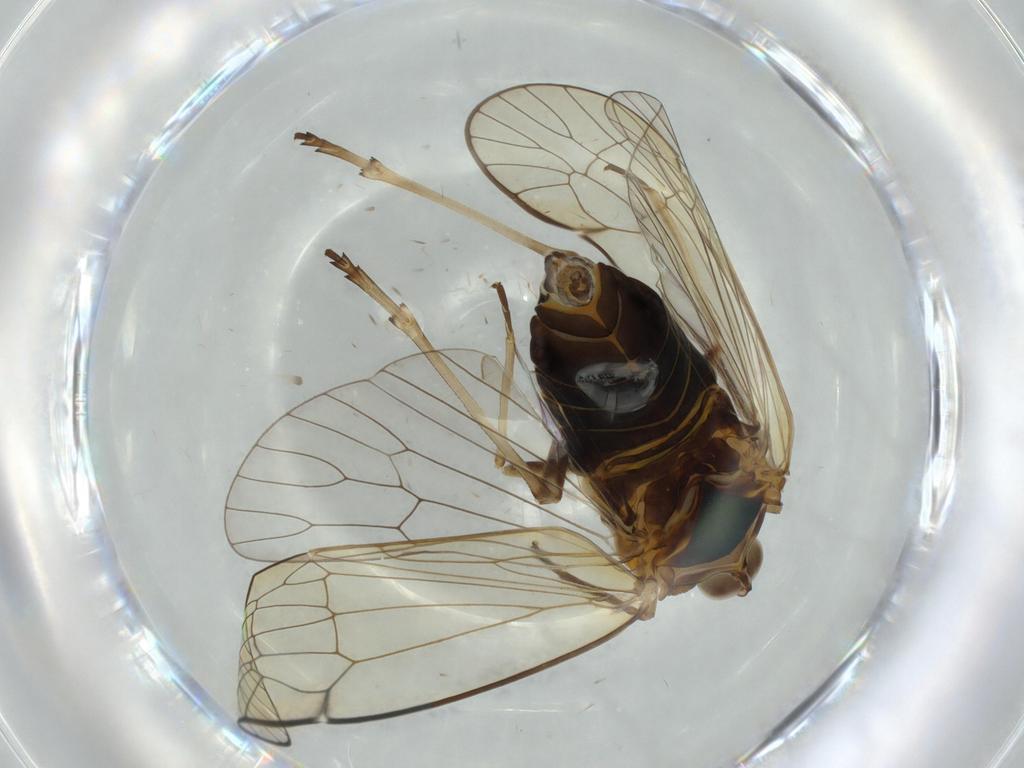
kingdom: Animalia
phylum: Arthropoda
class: Insecta
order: Hemiptera
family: Kinnaridae
